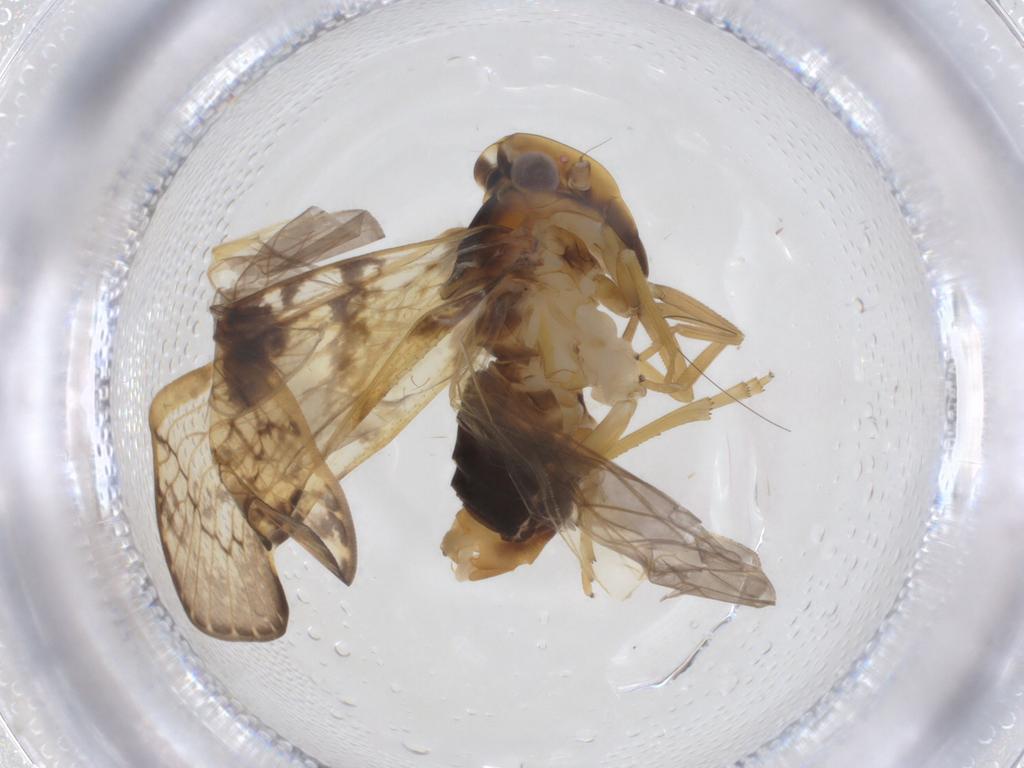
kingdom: Animalia
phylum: Arthropoda
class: Insecta
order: Hemiptera
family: Cixiidae
